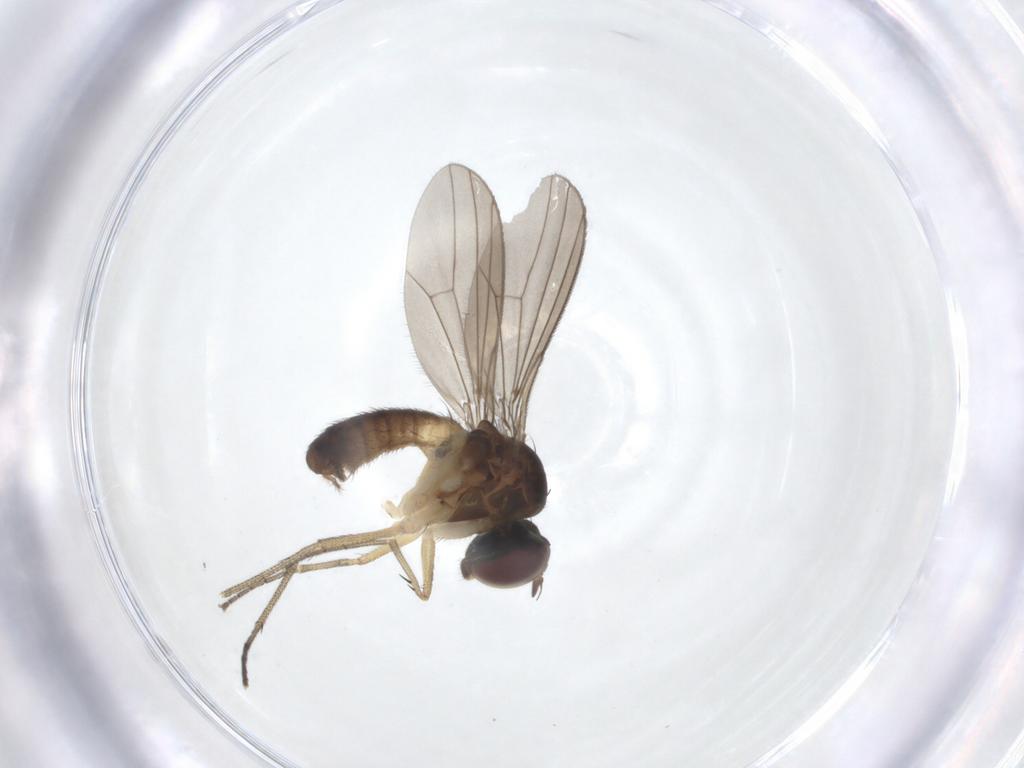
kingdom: Animalia
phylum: Arthropoda
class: Insecta
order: Diptera
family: Dolichopodidae
